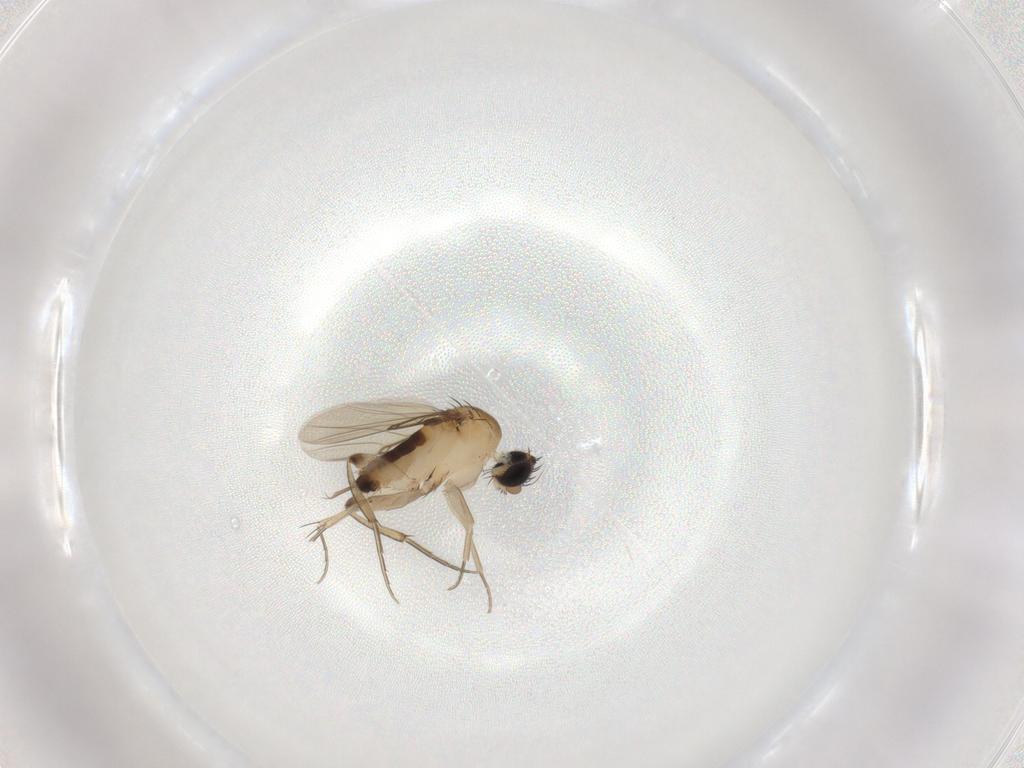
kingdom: Animalia
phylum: Arthropoda
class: Insecta
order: Diptera
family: Phoridae
